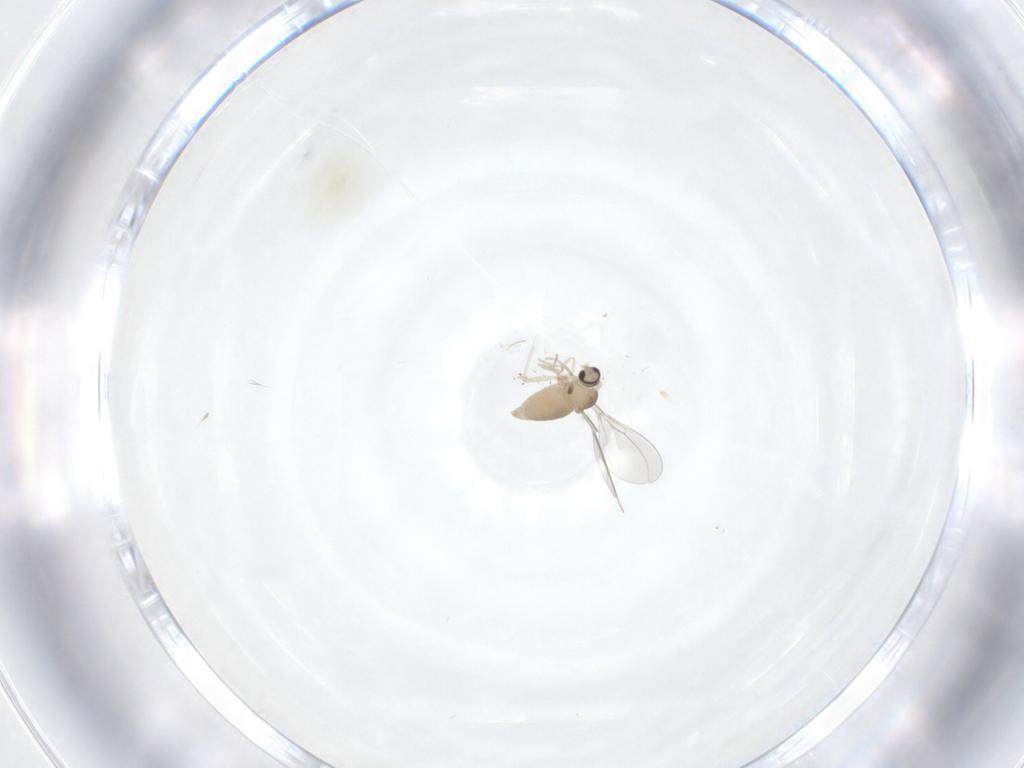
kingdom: Animalia
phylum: Arthropoda
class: Insecta
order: Diptera
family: Cecidomyiidae
